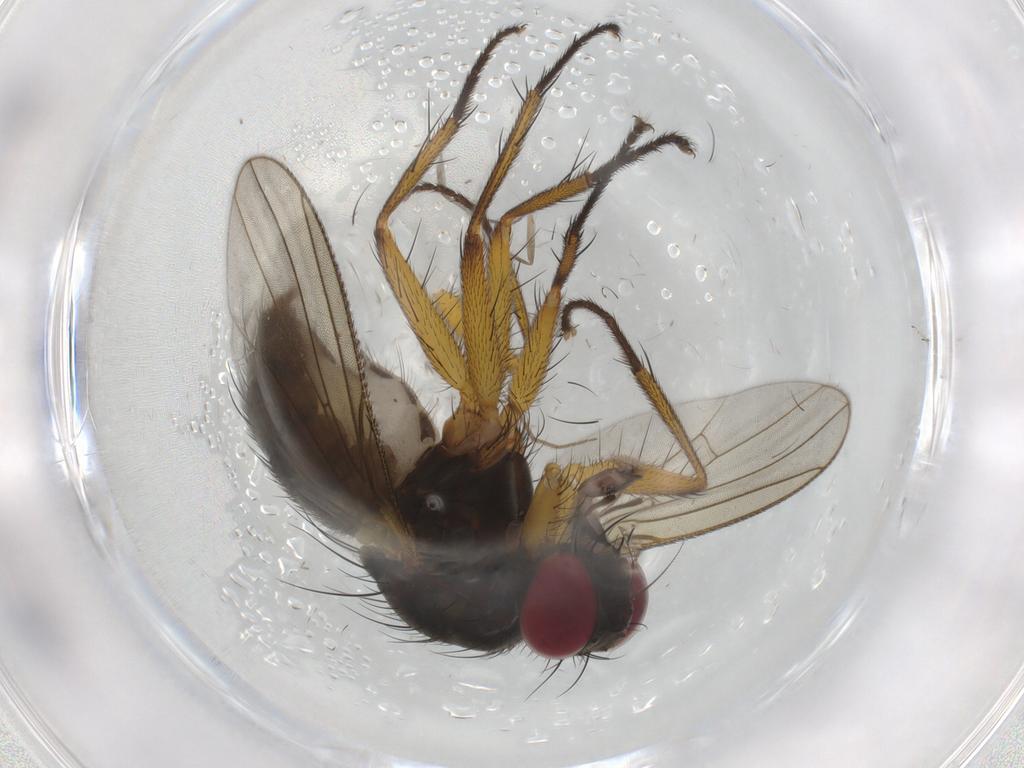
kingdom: Animalia
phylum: Arthropoda
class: Insecta
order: Diptera
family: Muscidae
